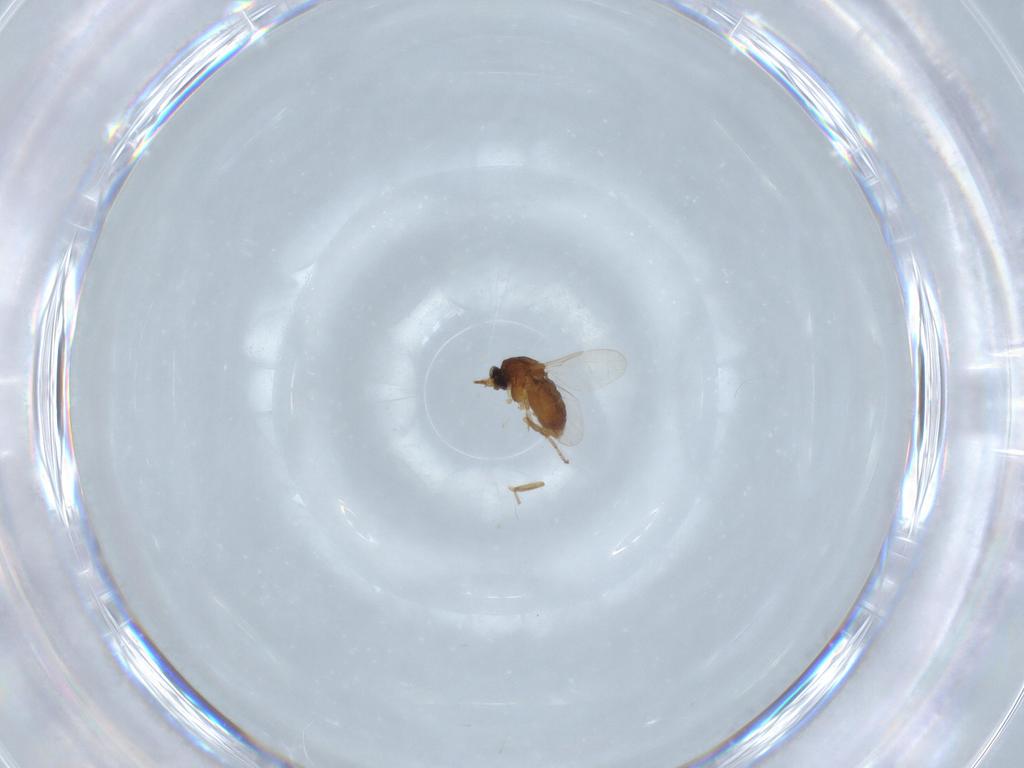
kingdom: Animalia
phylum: Arthropoda
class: Insecta
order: Diptera
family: Ceratopogonidae
